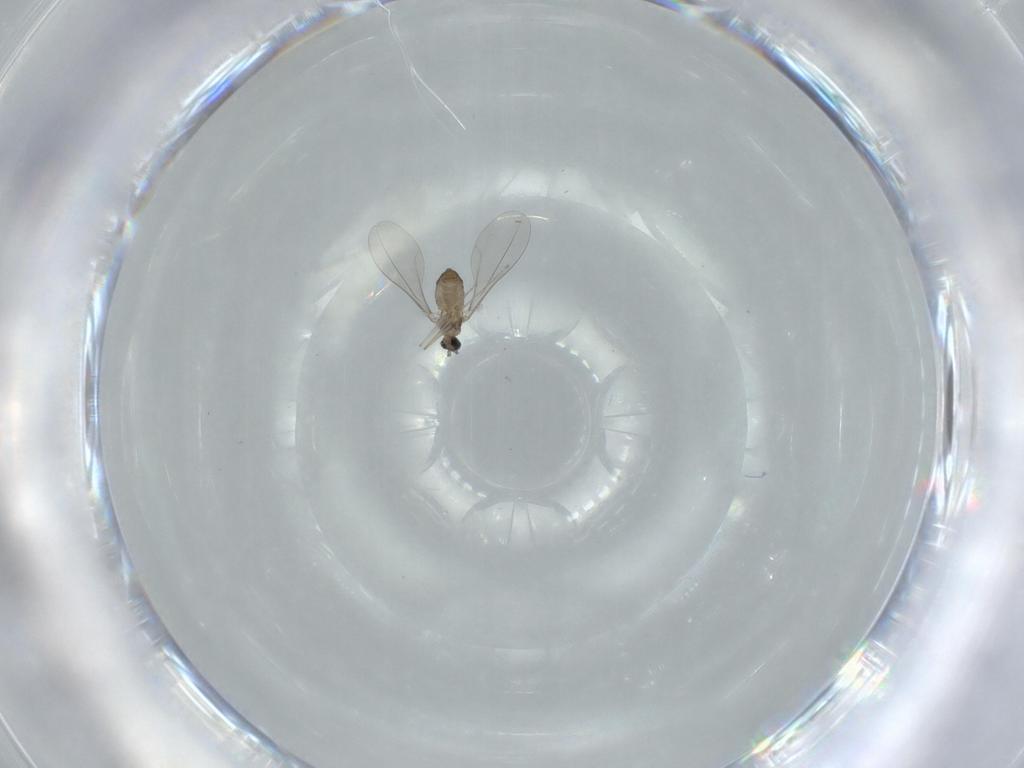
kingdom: Animalia
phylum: Arthropoda
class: Insecta
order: Diptera
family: Cecidomyiidae
